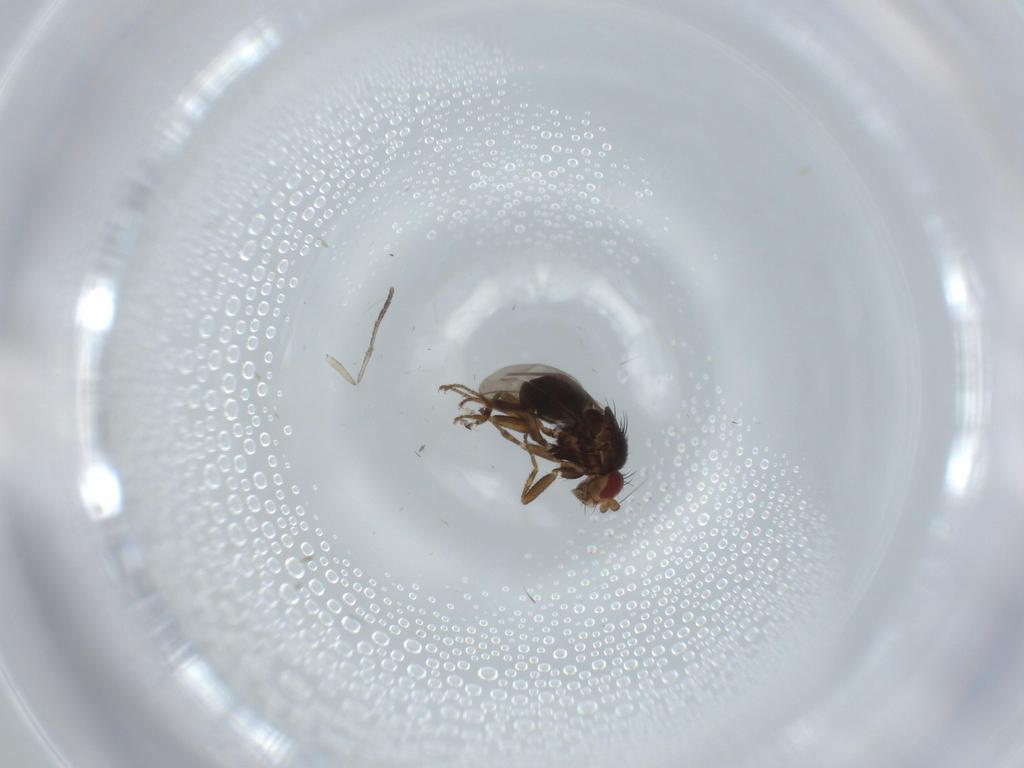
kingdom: Animalia
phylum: Arthropoda
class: Insecta
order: Diptera
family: Sphaeroceridae
